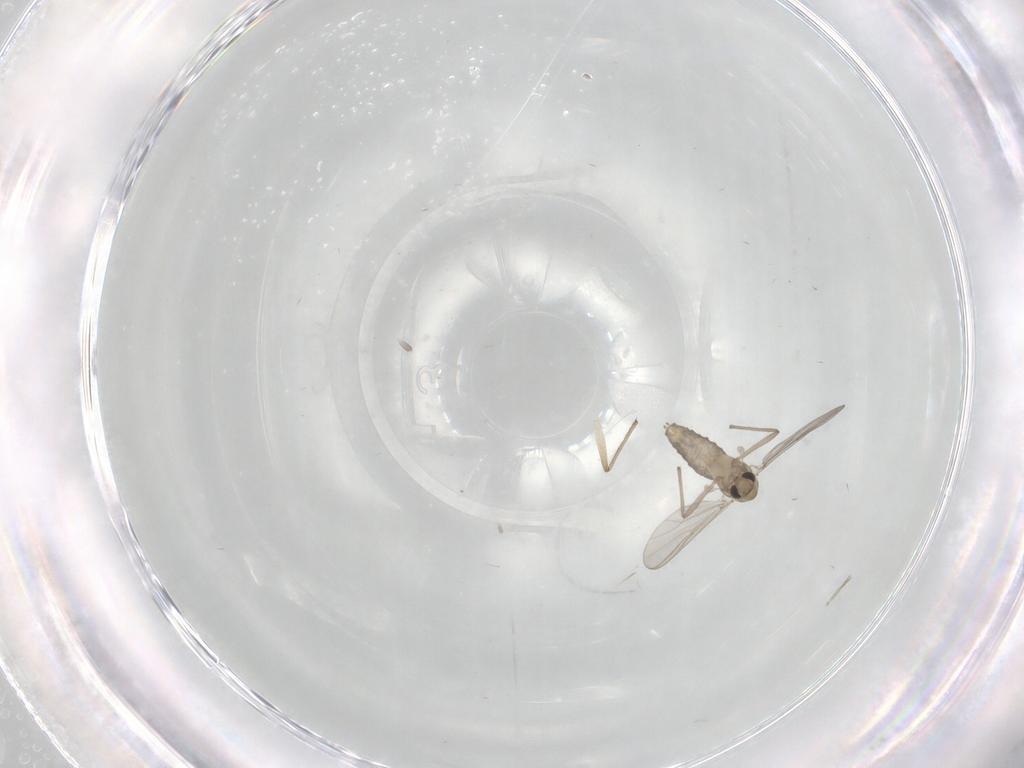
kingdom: Animalia
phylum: Arthropoda
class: Insecta
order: Diptera
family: Chironomidae
